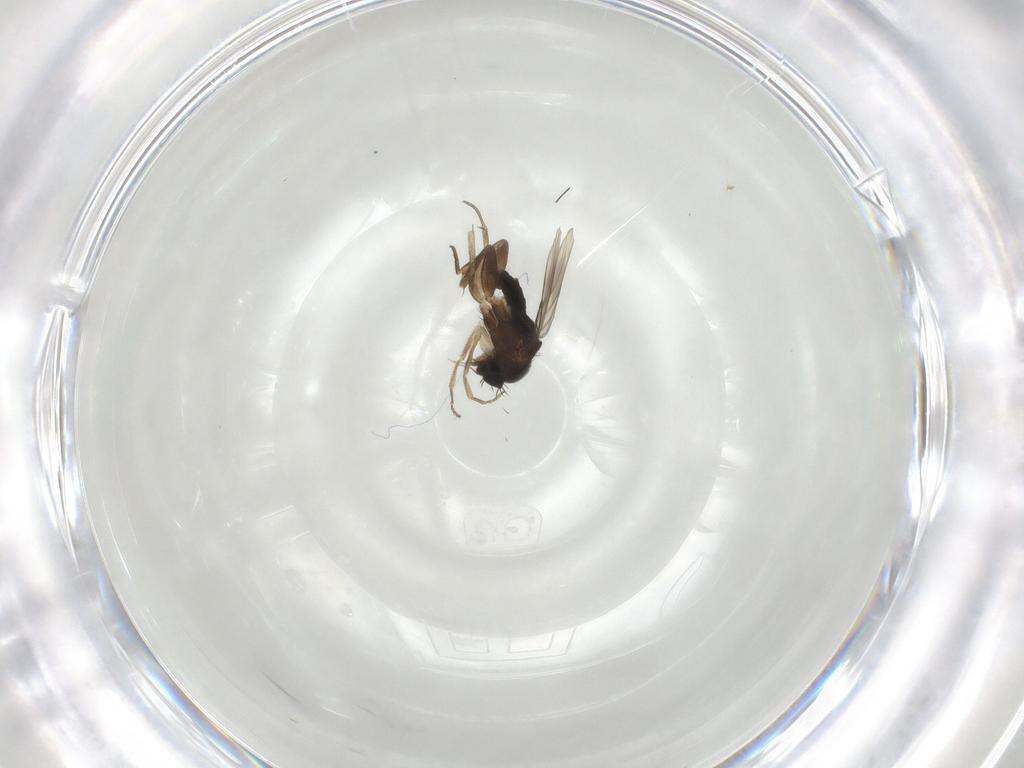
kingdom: Animalia
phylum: Arthropoda
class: Insecta
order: Diptera
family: Phoridae
